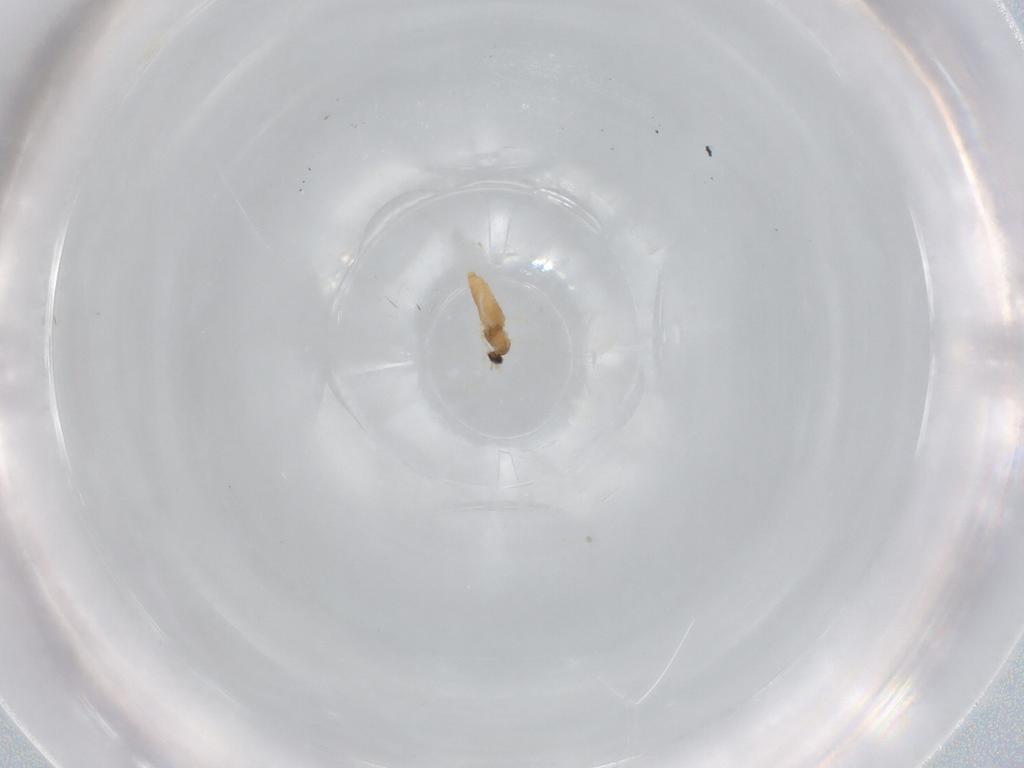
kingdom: Animalia
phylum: Arthropoda
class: Insecta
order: Diptera
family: Cecidomyiidae
